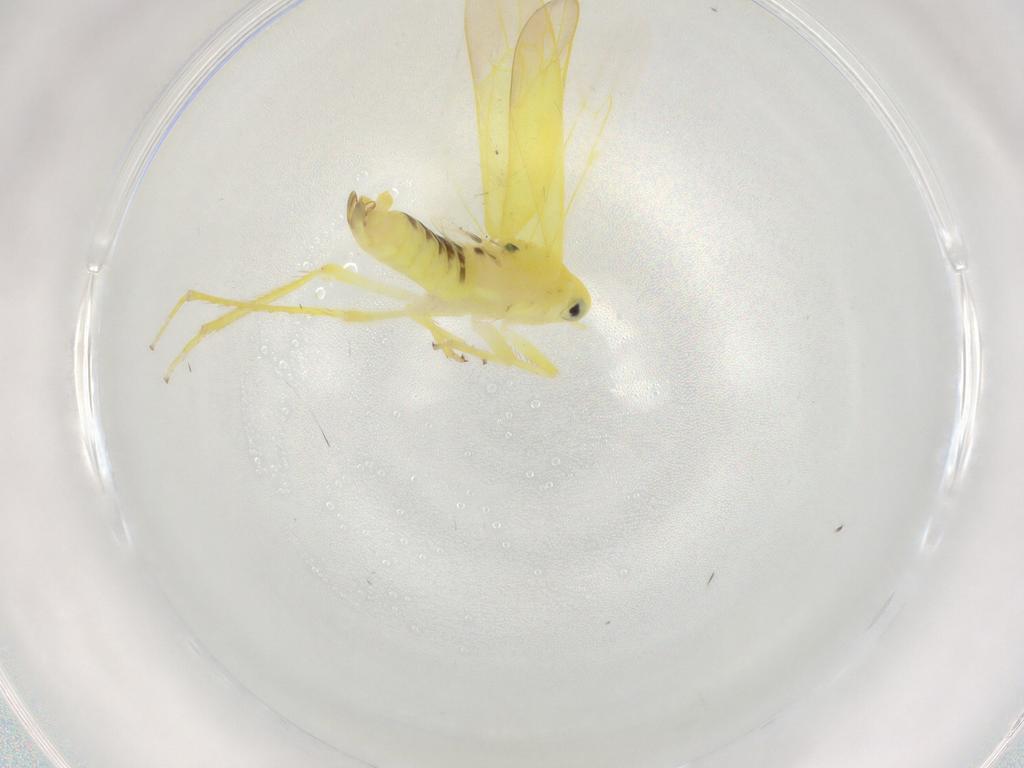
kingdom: Animalia
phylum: Arthropoda
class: Insecta
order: Hemiptera
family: Cicadellidae
